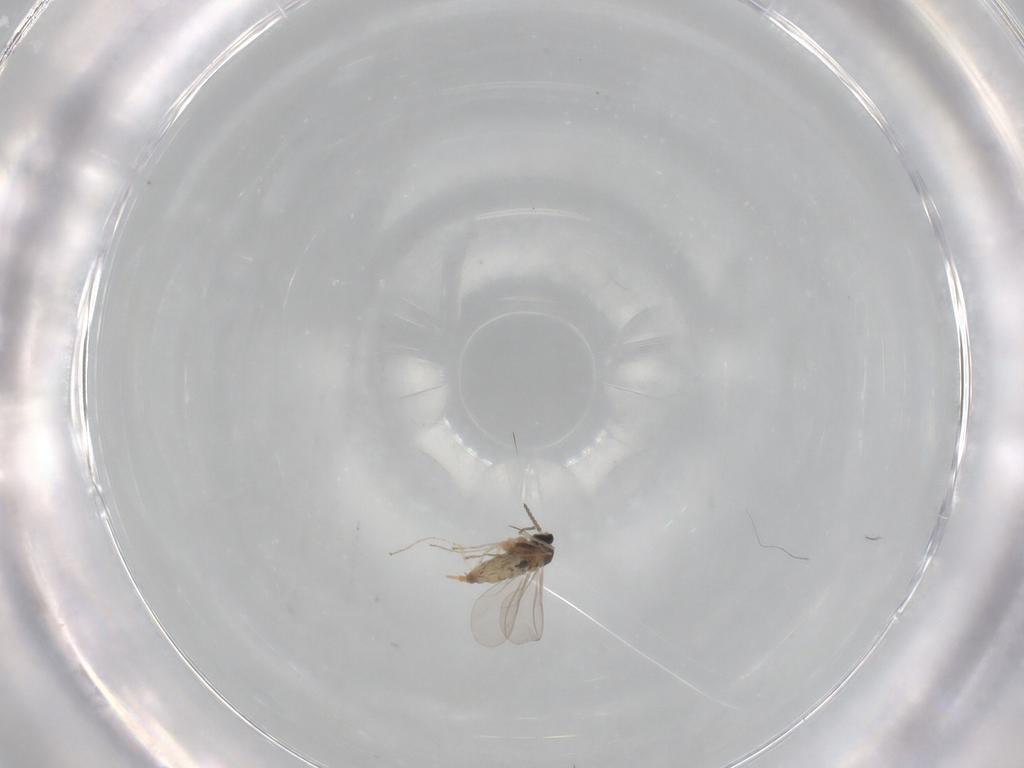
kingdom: Animalia
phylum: Arthropoda
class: Insecta
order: Diptera
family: Cecidomyiidae
